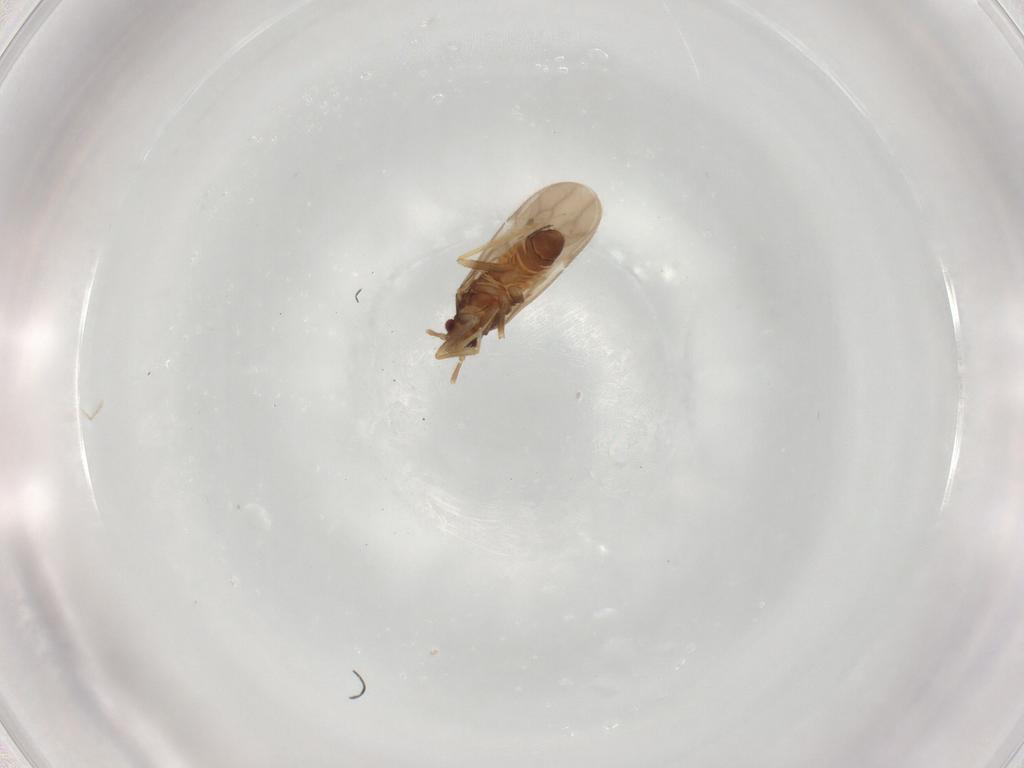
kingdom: Animalia
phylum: Arthropoda
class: Insecta
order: Hemiptera
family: Ceratocombidae
